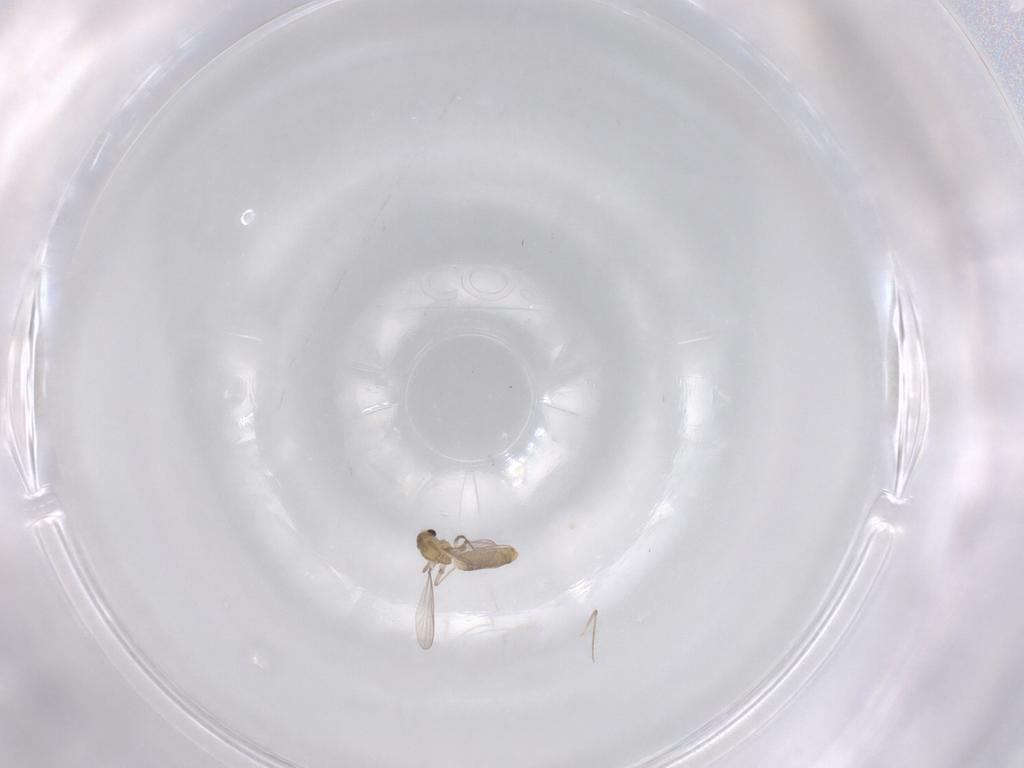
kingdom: Animalia
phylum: Arthropoda
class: Insecta
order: Diptera
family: Chironomidae
